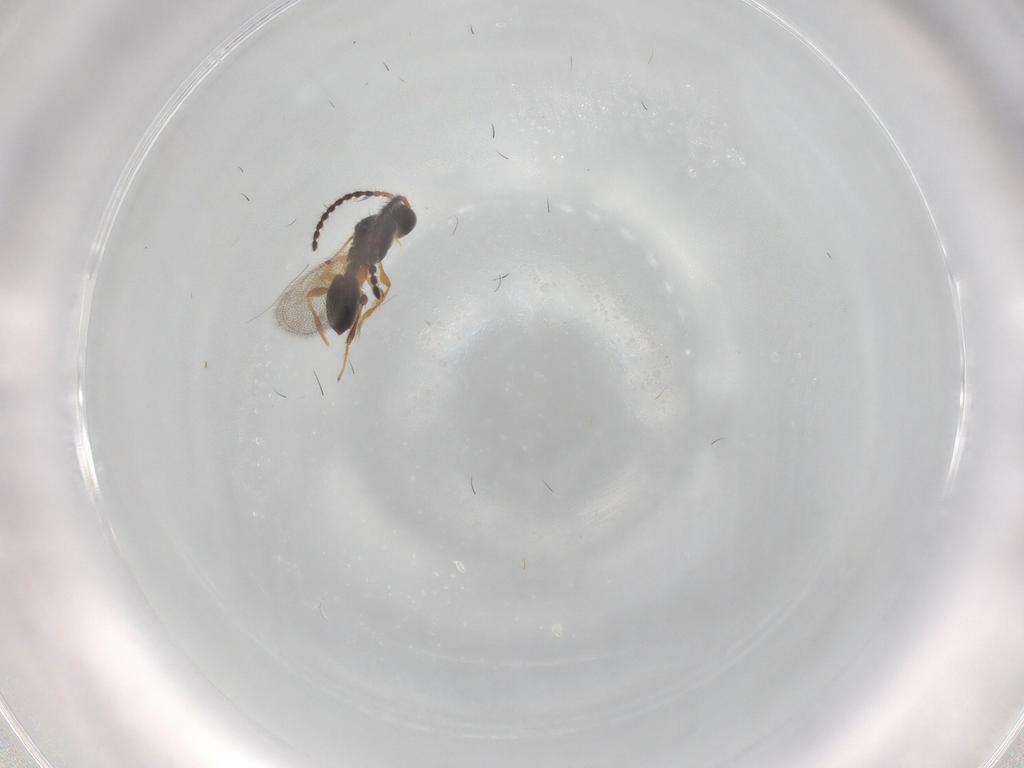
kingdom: Animalia
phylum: Arthropoda
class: Insecta
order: Hymenoptera
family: Diapriidae
